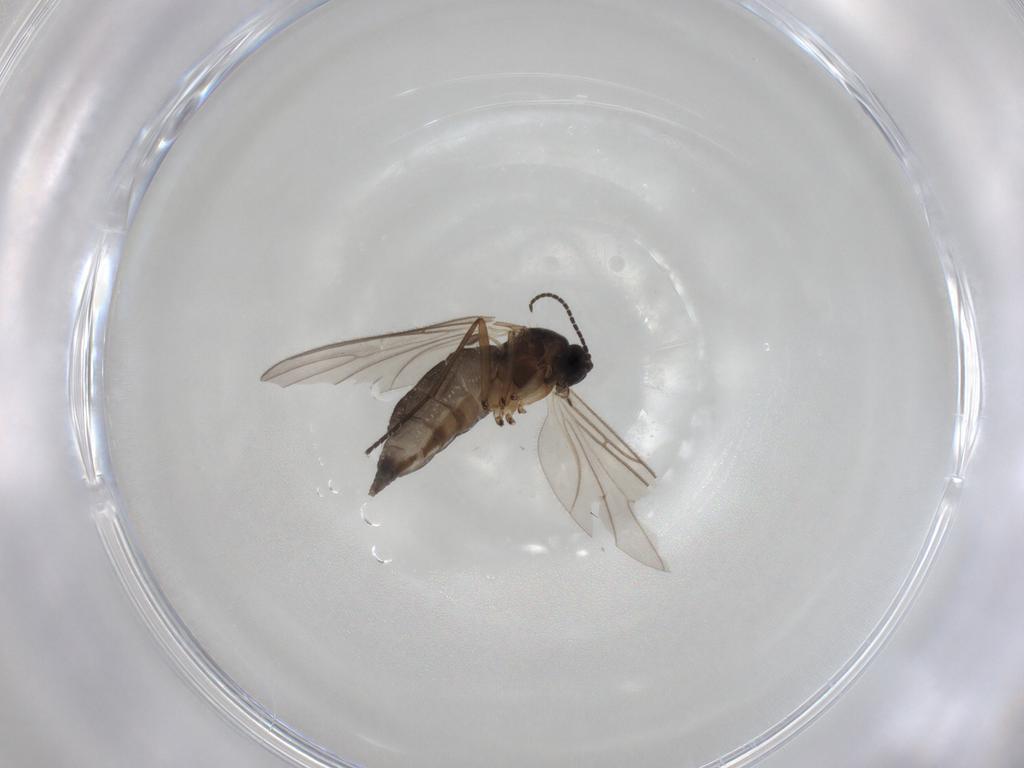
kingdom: Animalia
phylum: Arthropoda
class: Insecta
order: Diptera
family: Sciaridae
